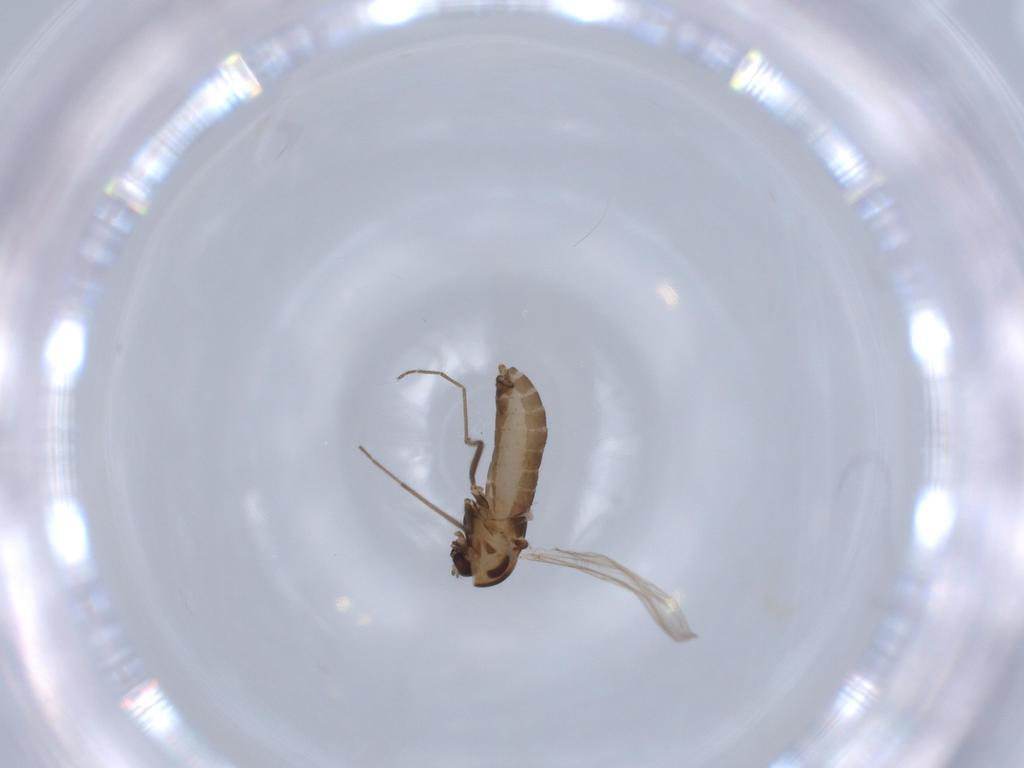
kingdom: Animalia
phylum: Arthropoda
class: Insecta
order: Diptera
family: Chironomidae
